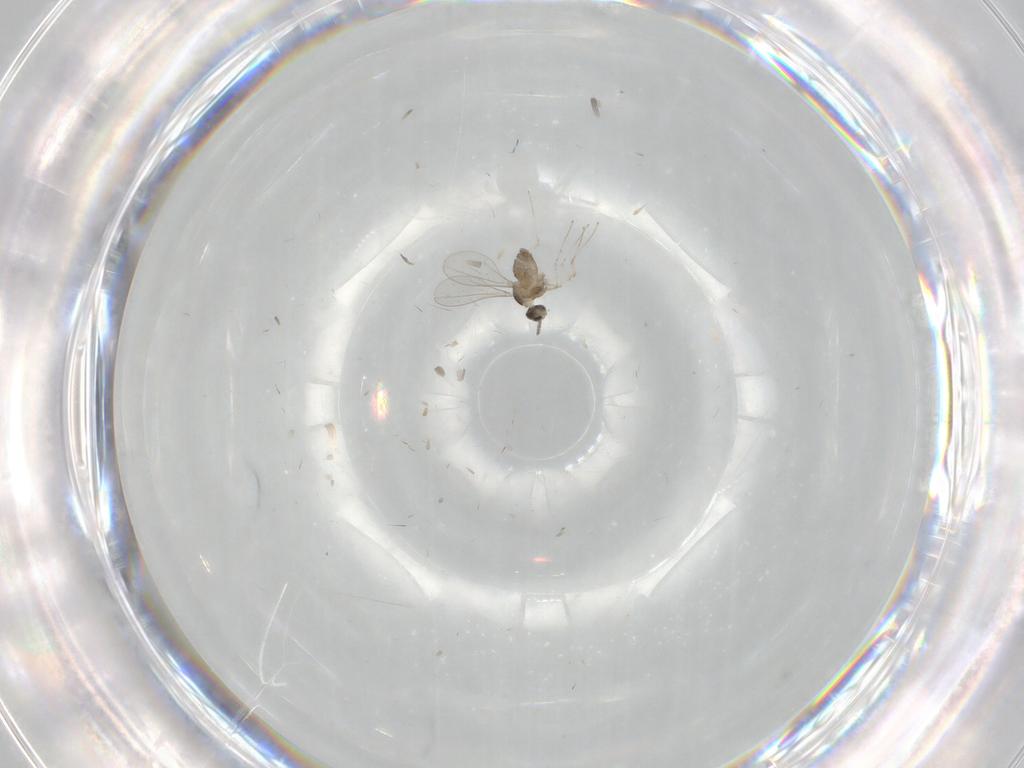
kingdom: Animalia
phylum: Arthropoda
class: Insecta
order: Diptera
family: Cecidomyiidae
